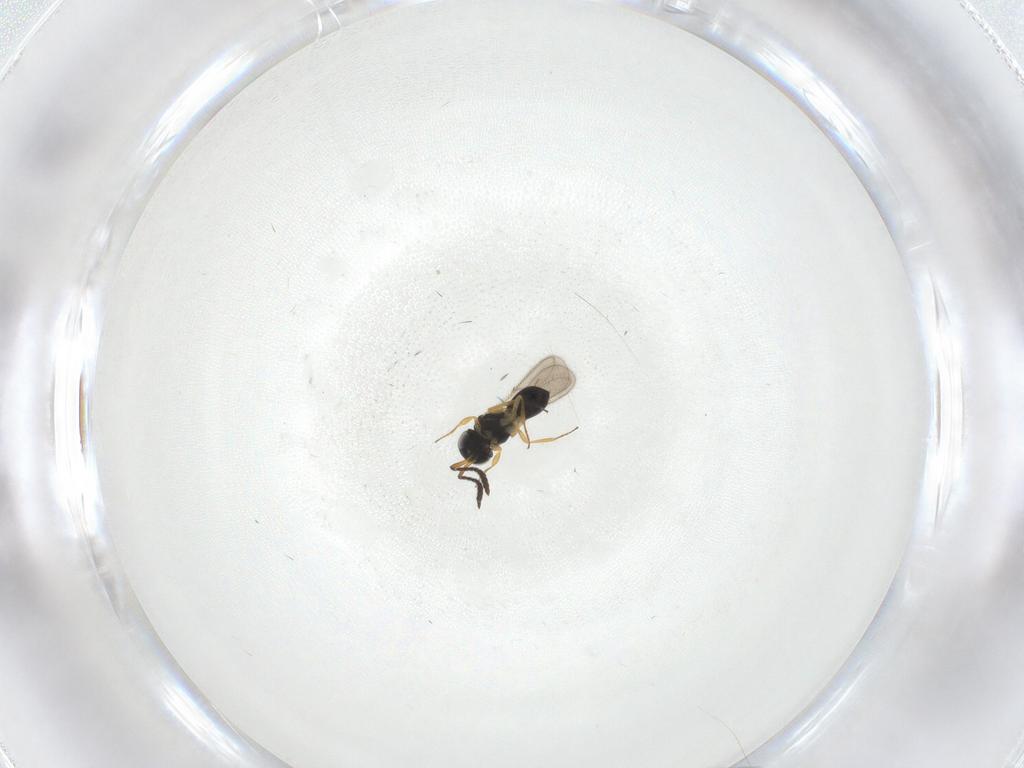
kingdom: Animalia
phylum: Arthropoda
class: Insecta
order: Hymenoptera
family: Scelionidae
